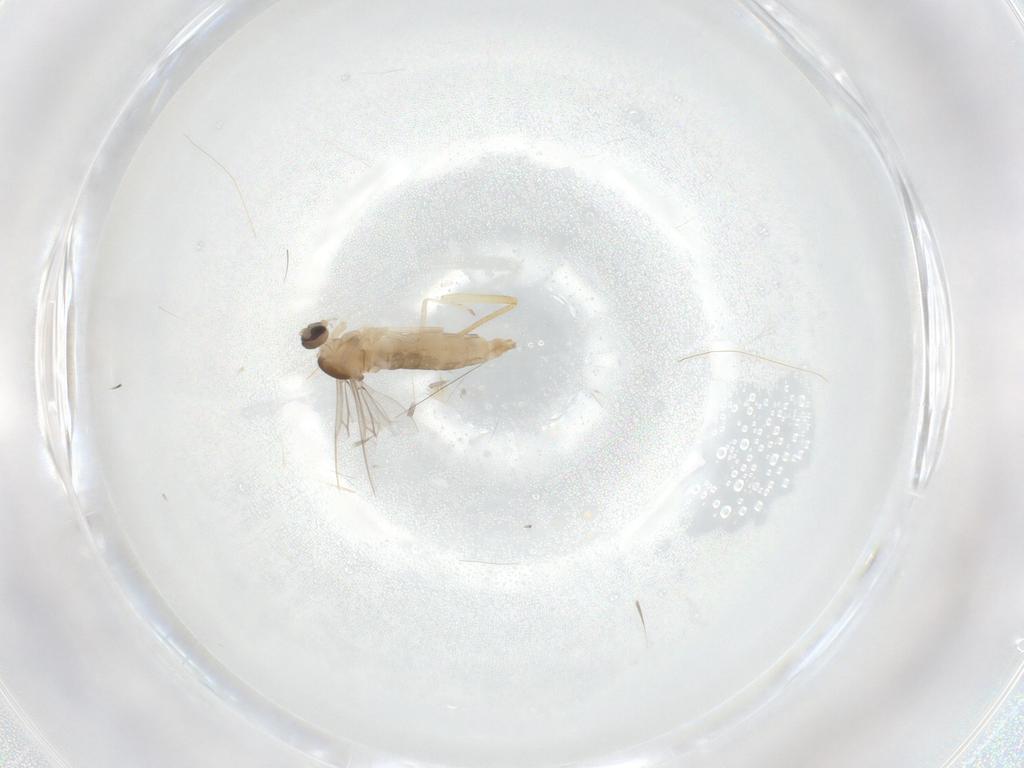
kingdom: Animalia
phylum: Arthropoda
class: Insecta
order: Diptera
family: Cecidomyiidae
